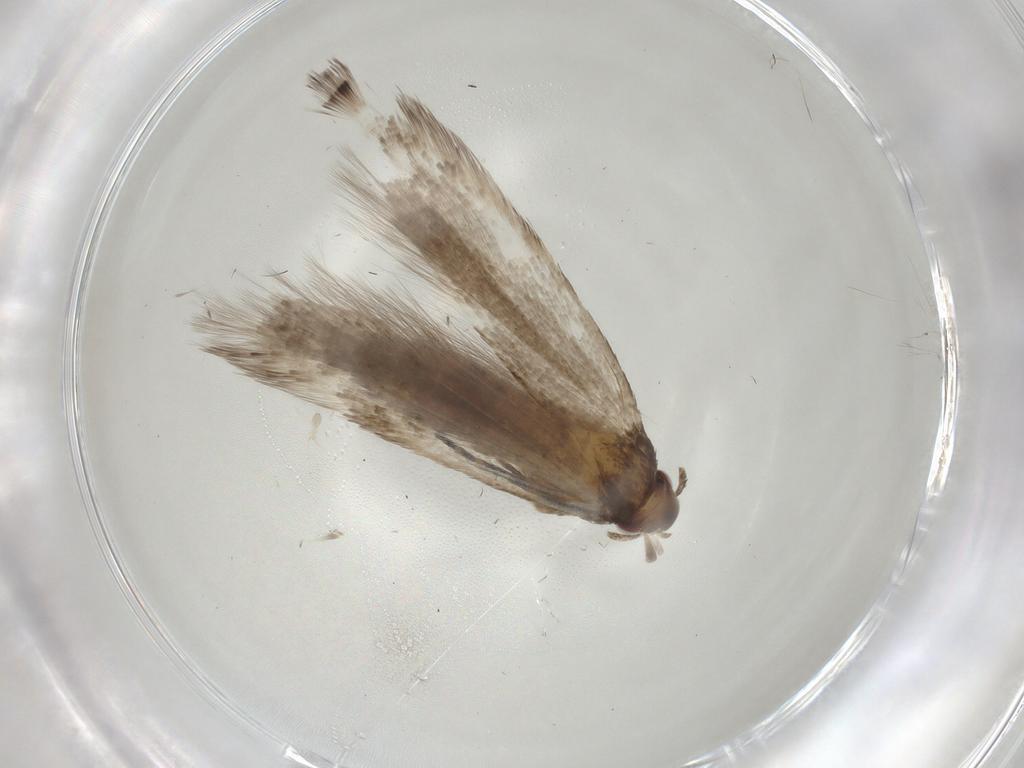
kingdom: Animalia
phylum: Arthropoda
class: Insecta
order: Lepidoptera
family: Gelechiidae
